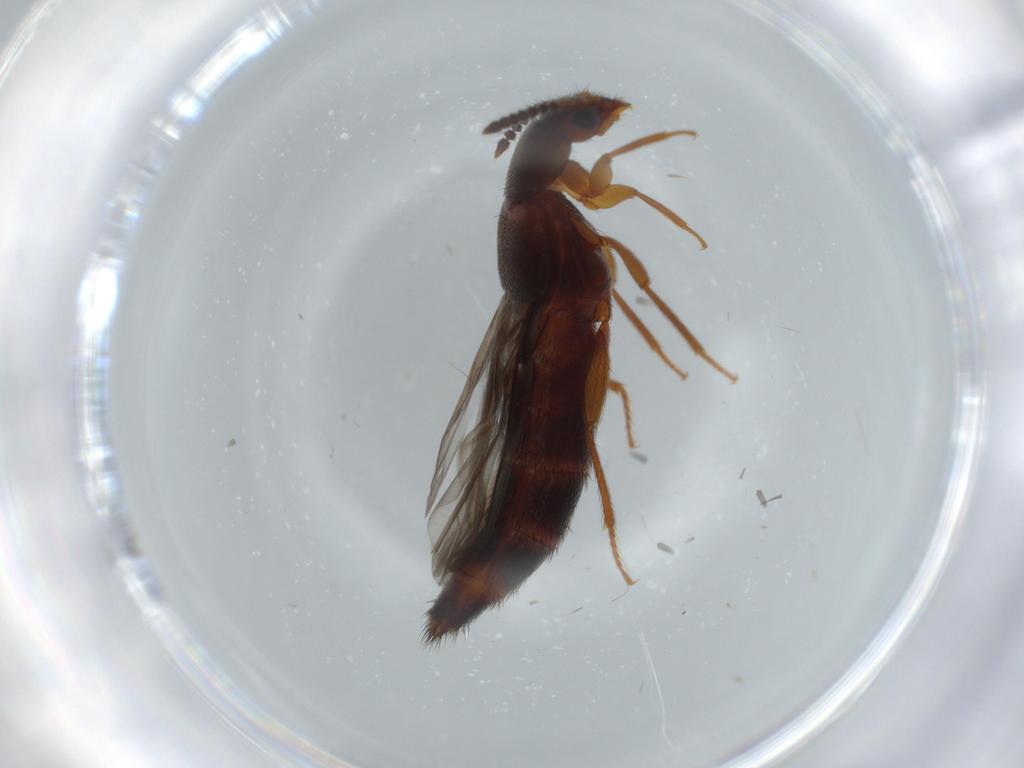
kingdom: Animalia
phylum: Arthropoda
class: Insecta
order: Coleoptera
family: Staphylinidae
